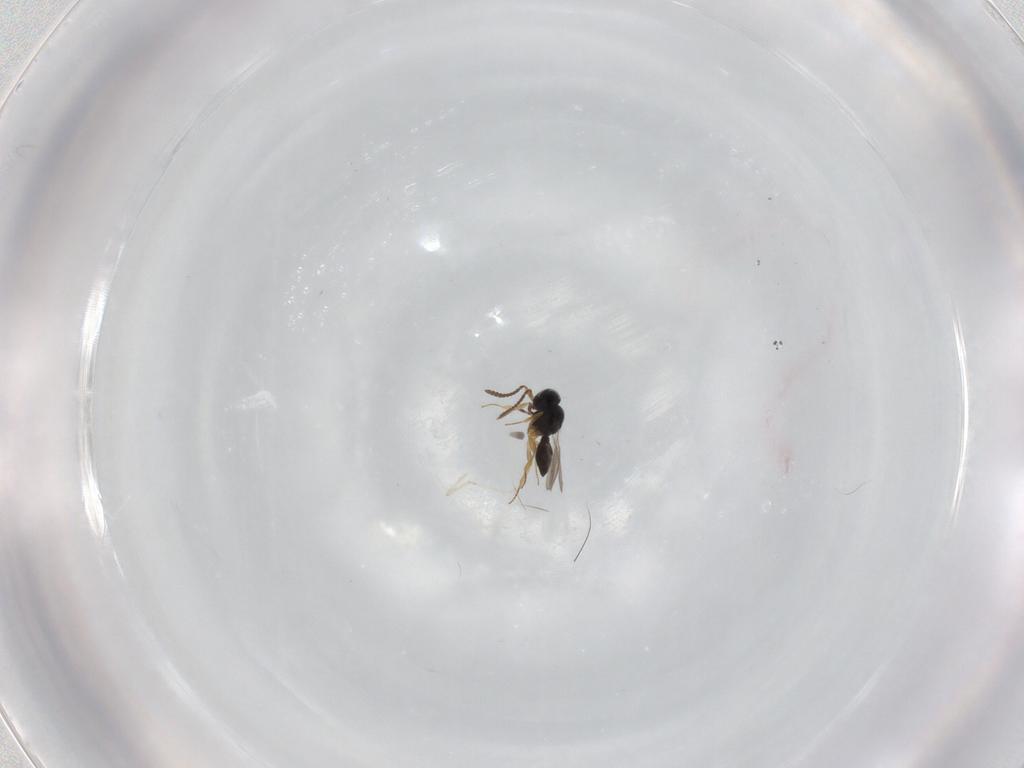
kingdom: Animalia
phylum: Arthropoda
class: Insecta
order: Hymenoptera
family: Scelionidae
